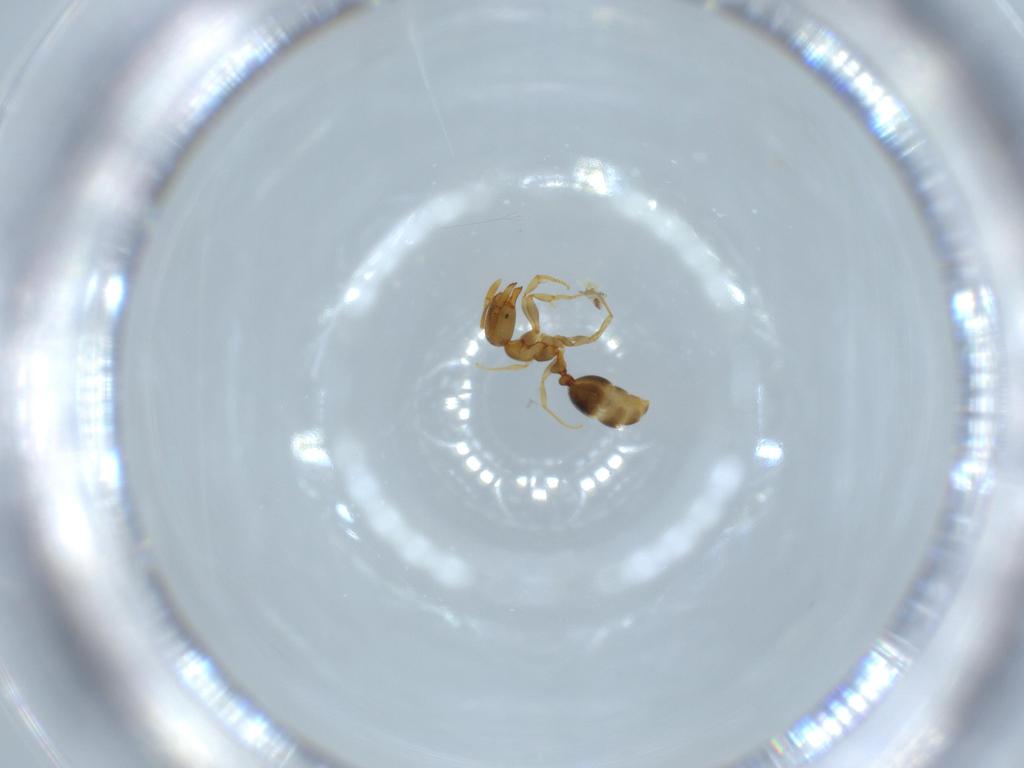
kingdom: Animalia
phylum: Arthropoda
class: Insecta
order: Hymenoptera
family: Formicidae
